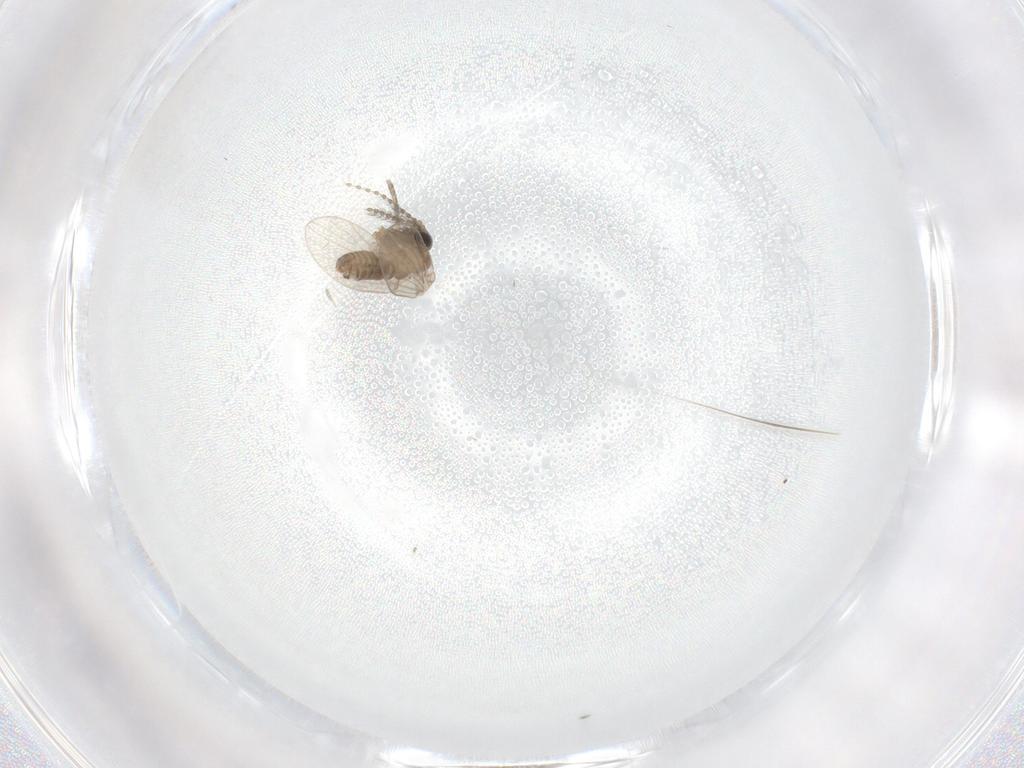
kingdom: Animalia
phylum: Arthropoda
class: Insecta
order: Diptera
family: Psychodidae
